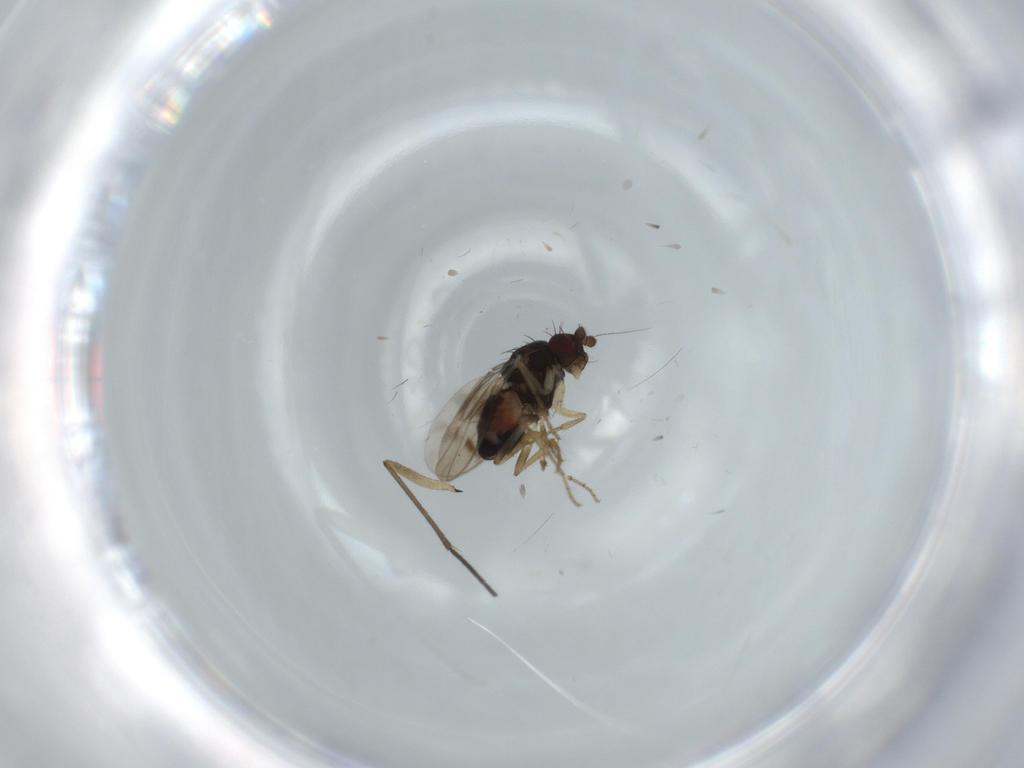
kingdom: Animalia
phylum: Arthropoda
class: Insecta
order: Diptera
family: Sphaeroceridae
